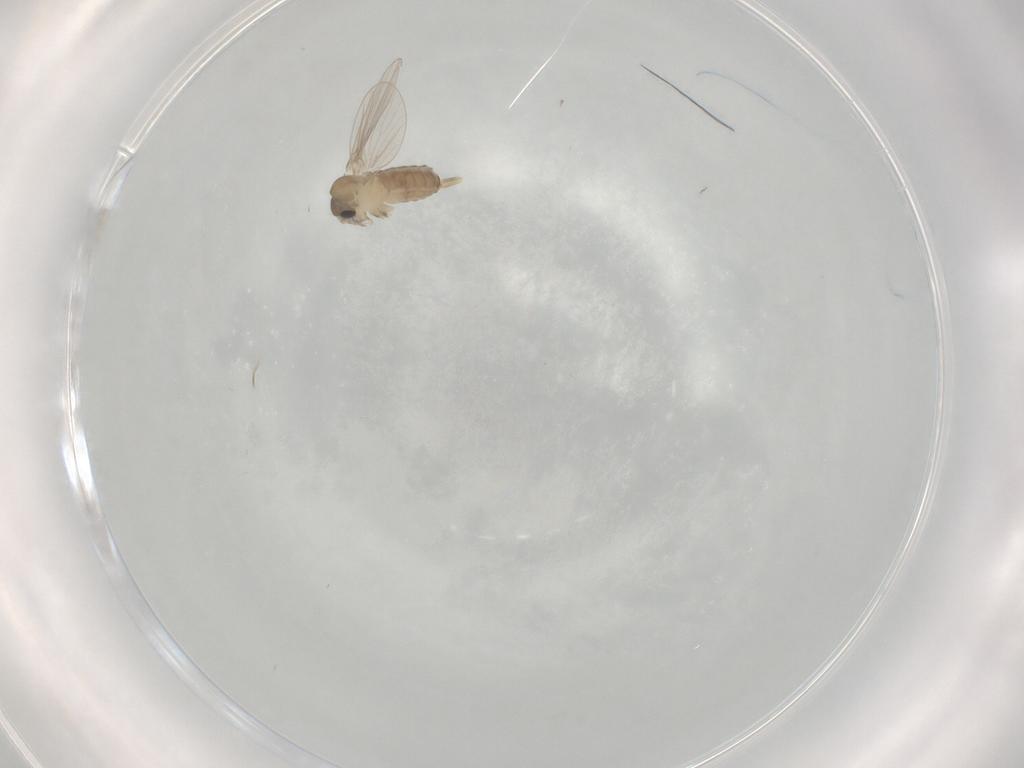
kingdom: Animalia
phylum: Arthropoda
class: Insecta
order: Diptera
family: Psychodidae
